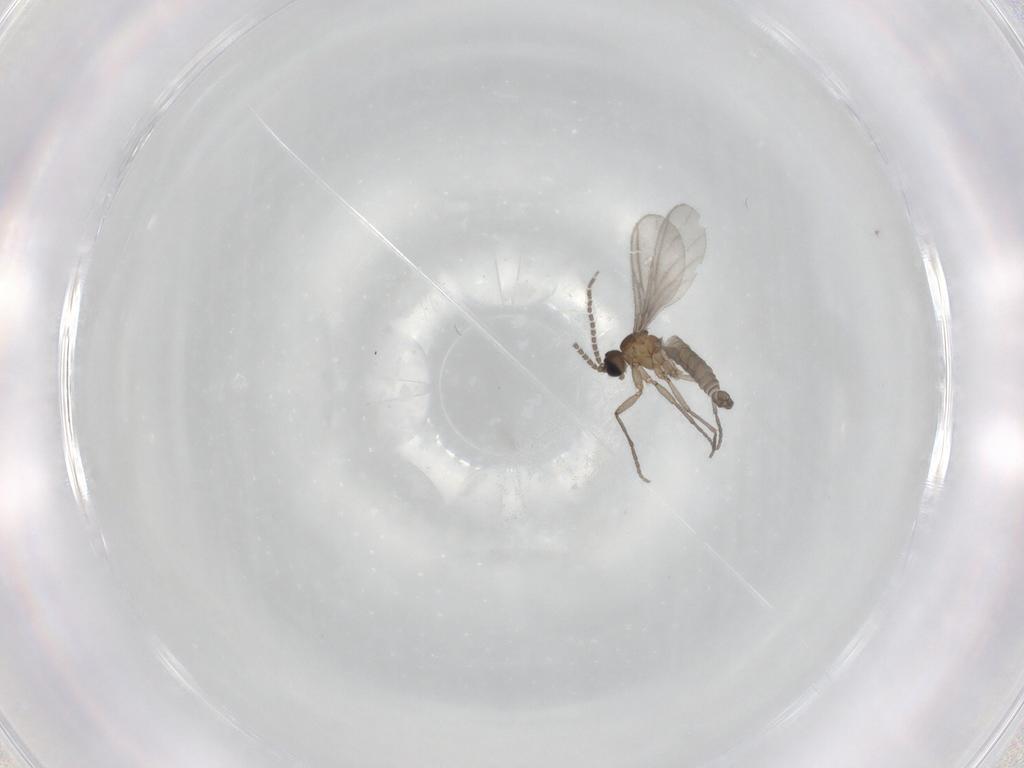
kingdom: Animalia
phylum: Arthropoda
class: Insecta
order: Diptera
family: Sciaridae
